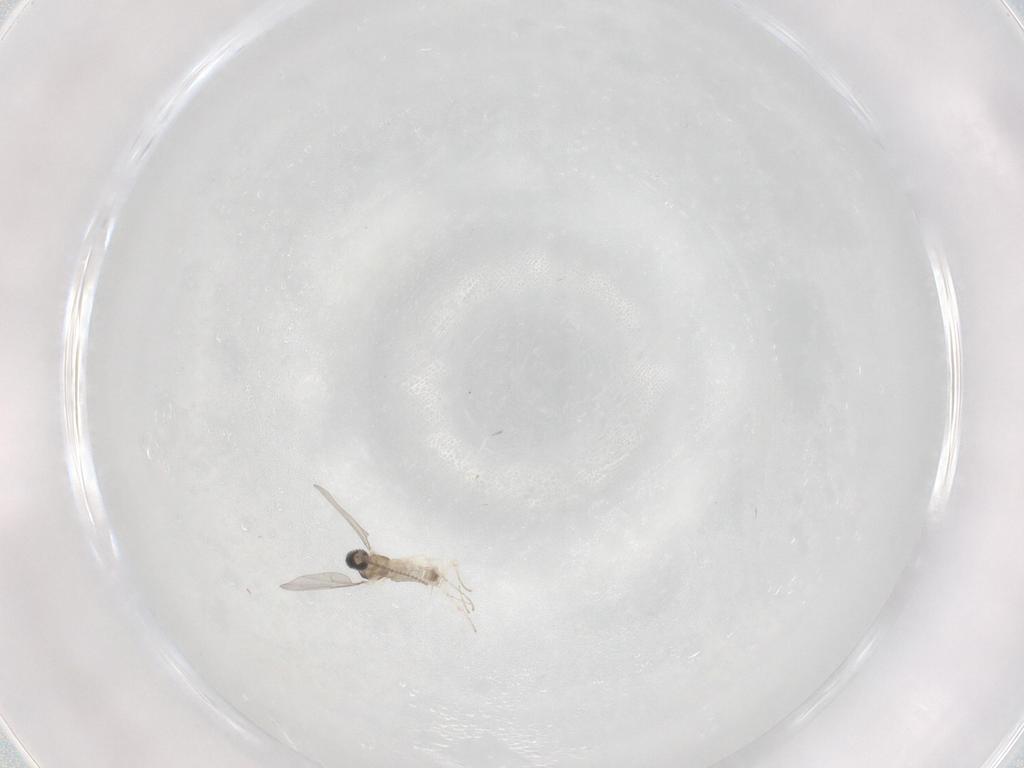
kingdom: Animalia
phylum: Arthropoda
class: Insecta
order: Diptera
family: Cecidomyiidae
